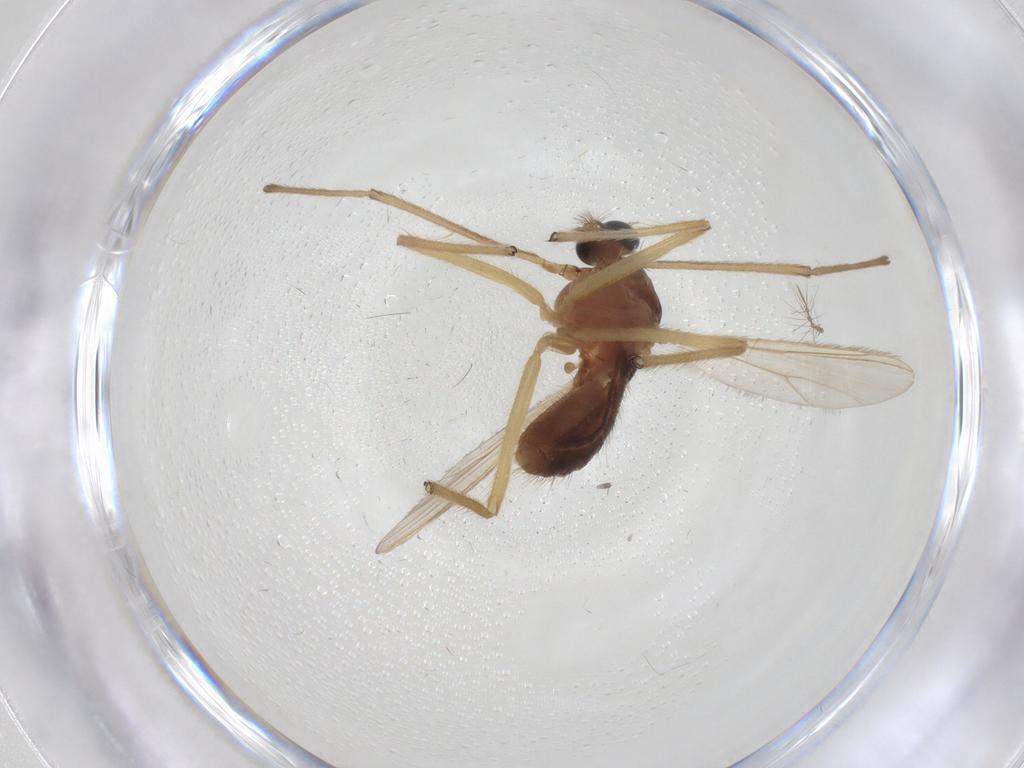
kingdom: Animalia
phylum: Arthropoda
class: Insecta
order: Diptera
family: Chironomidae
